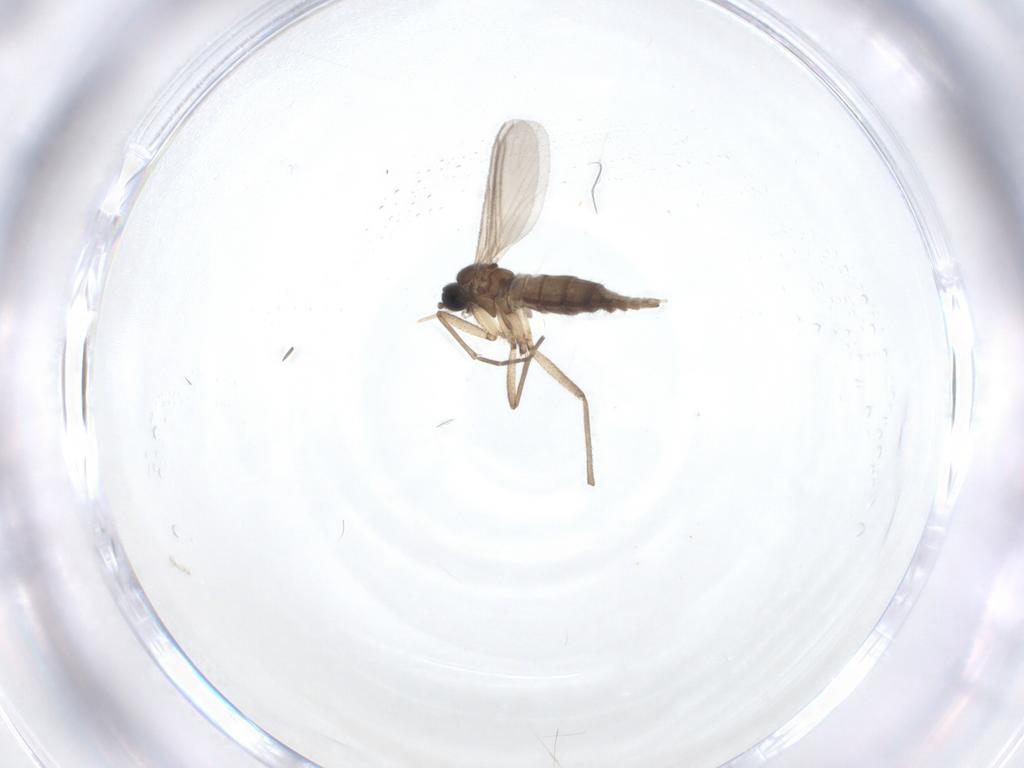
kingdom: Animalia
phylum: Arthropoda
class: Insecta
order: Diptera
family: Sciaridae
